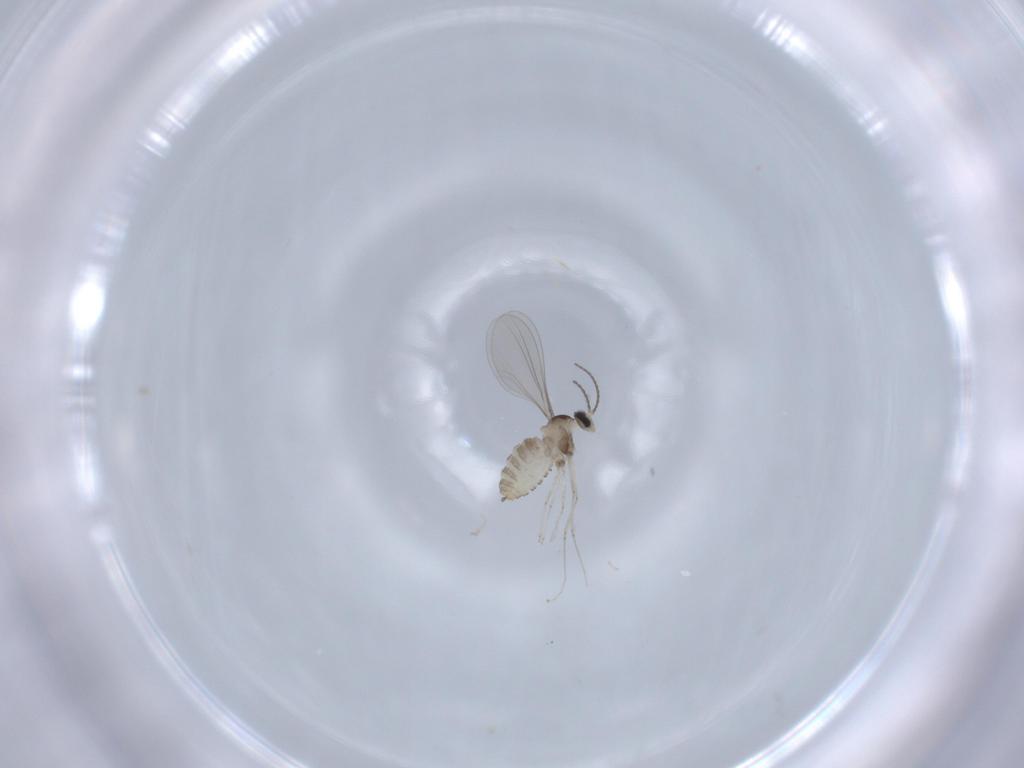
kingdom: Animalia
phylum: Arthropoda
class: Insecta
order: Diptera
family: Cecidomyiidae
